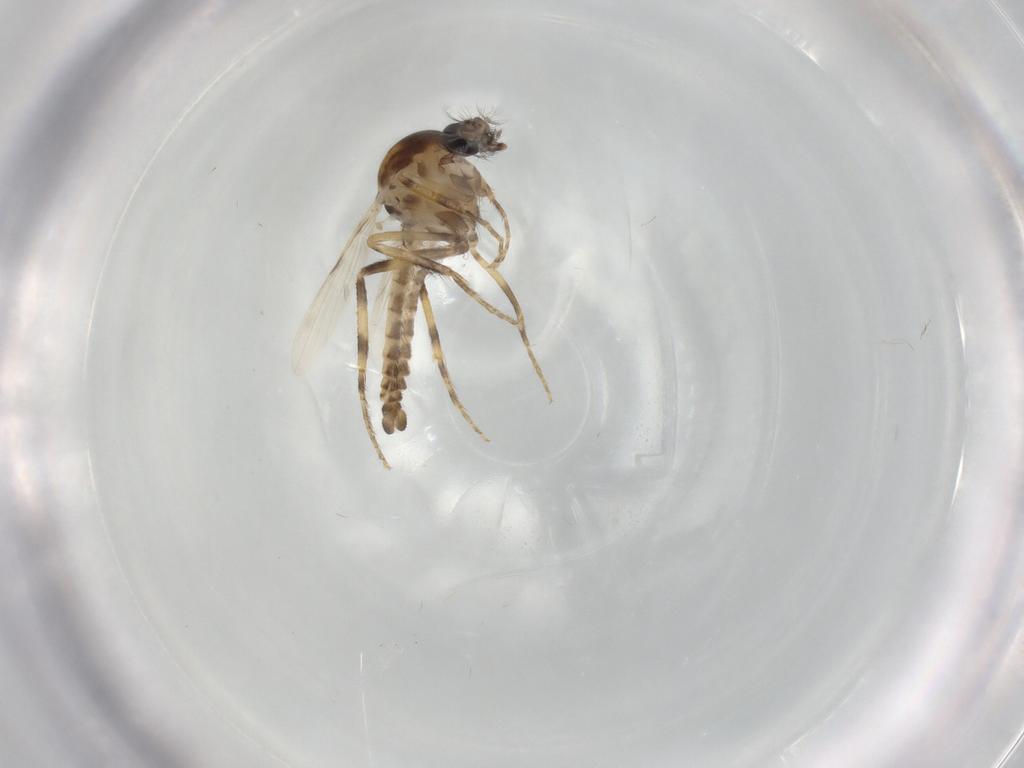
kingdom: Animalia
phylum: Arthropoda
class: Insecta
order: Diptera
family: Ceratopogonidae
